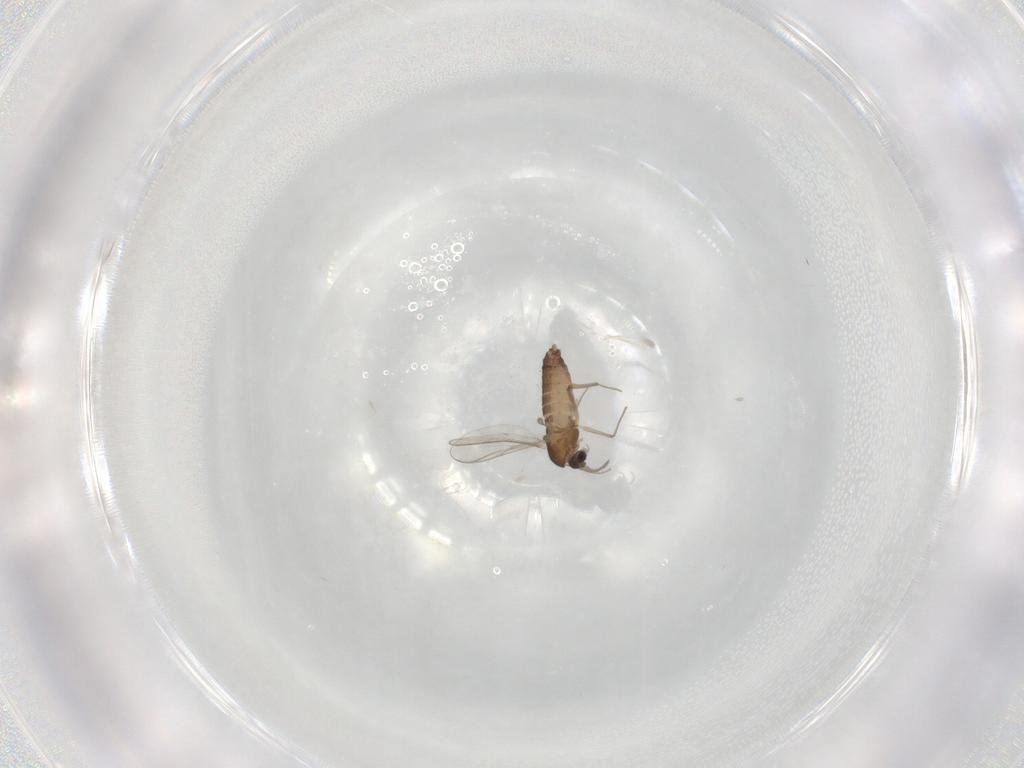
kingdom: Animalia
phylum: Arthropoda
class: Insecta
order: Diptera
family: Chironomidae
